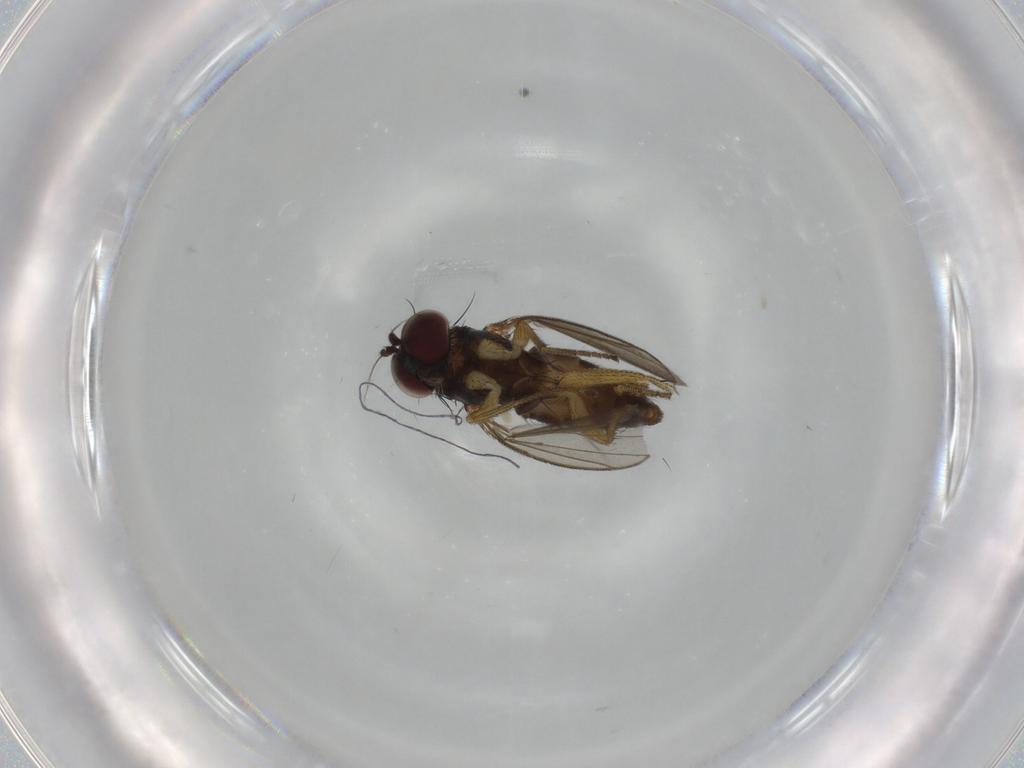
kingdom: Animalia
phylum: Arthropoda
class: Insecta
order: Diptera
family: Dolichopodidae
